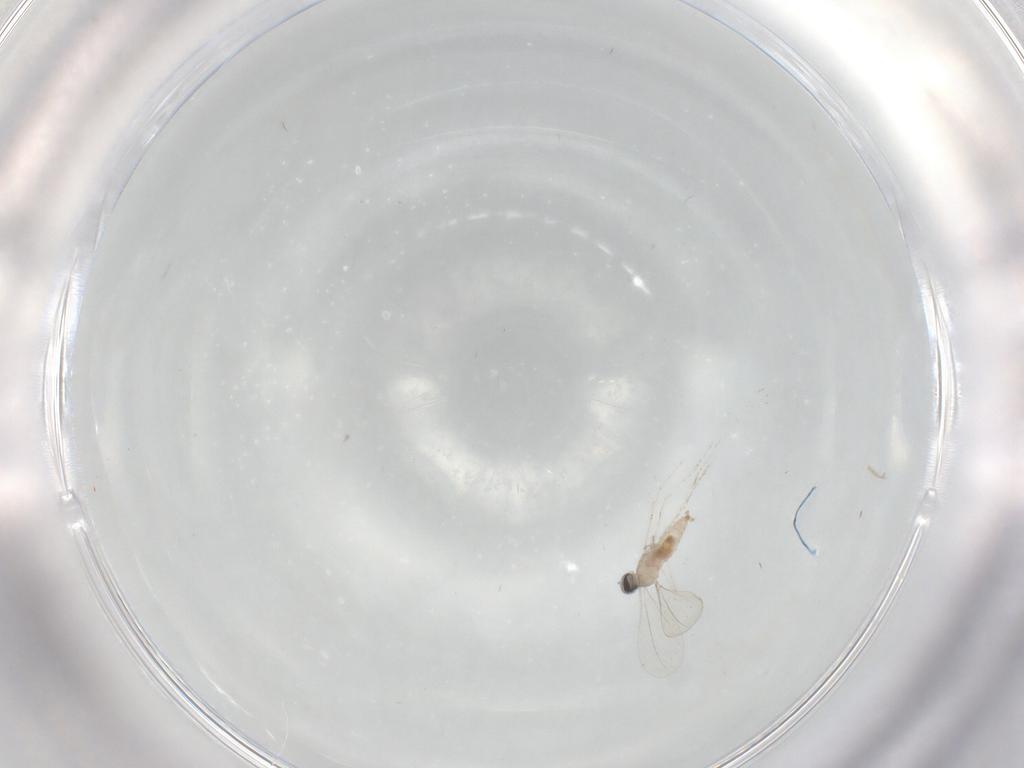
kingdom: Animalia
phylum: Arthropoda
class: Insecta
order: Diptera
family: Cecidomyiidae
